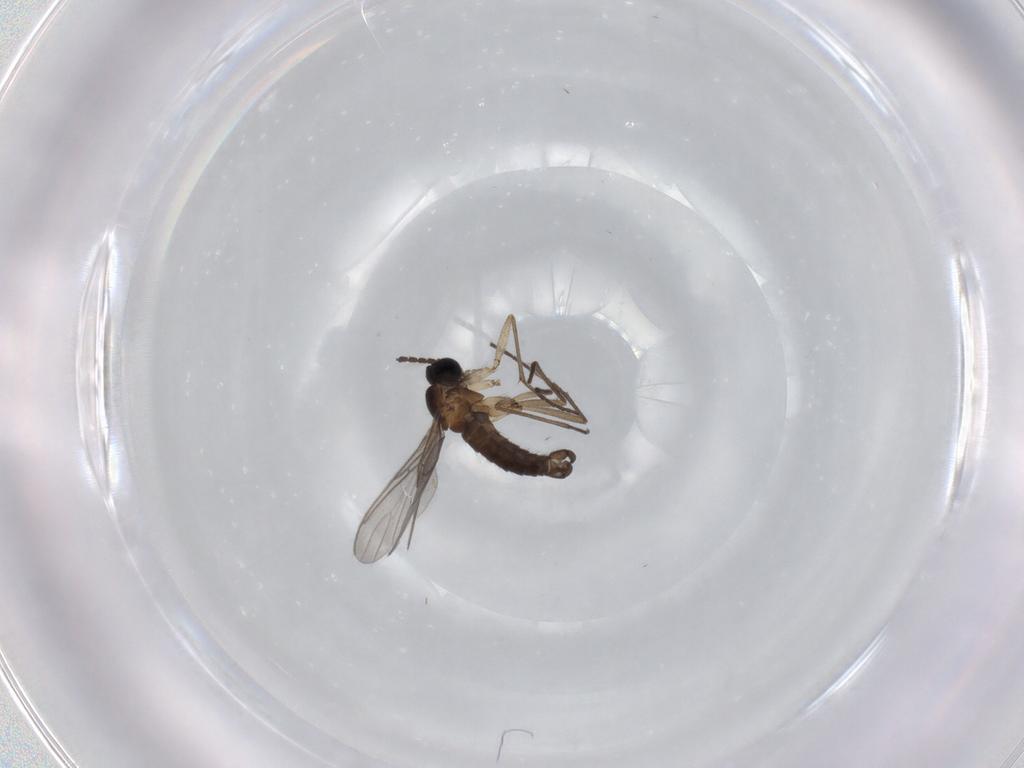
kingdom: Animalia
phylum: Arthropoda
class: Insecta
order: Diptera
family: Sciaridae
